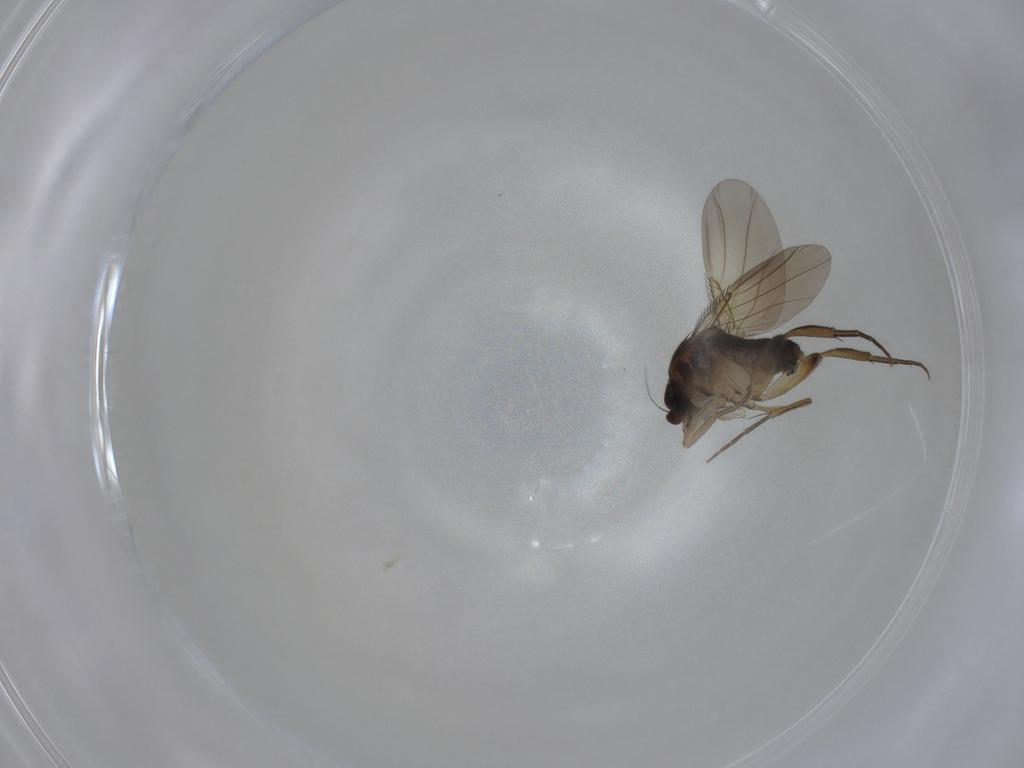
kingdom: Animalia
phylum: Arthropoda
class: Insecta
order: Diptera
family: Phoridae
